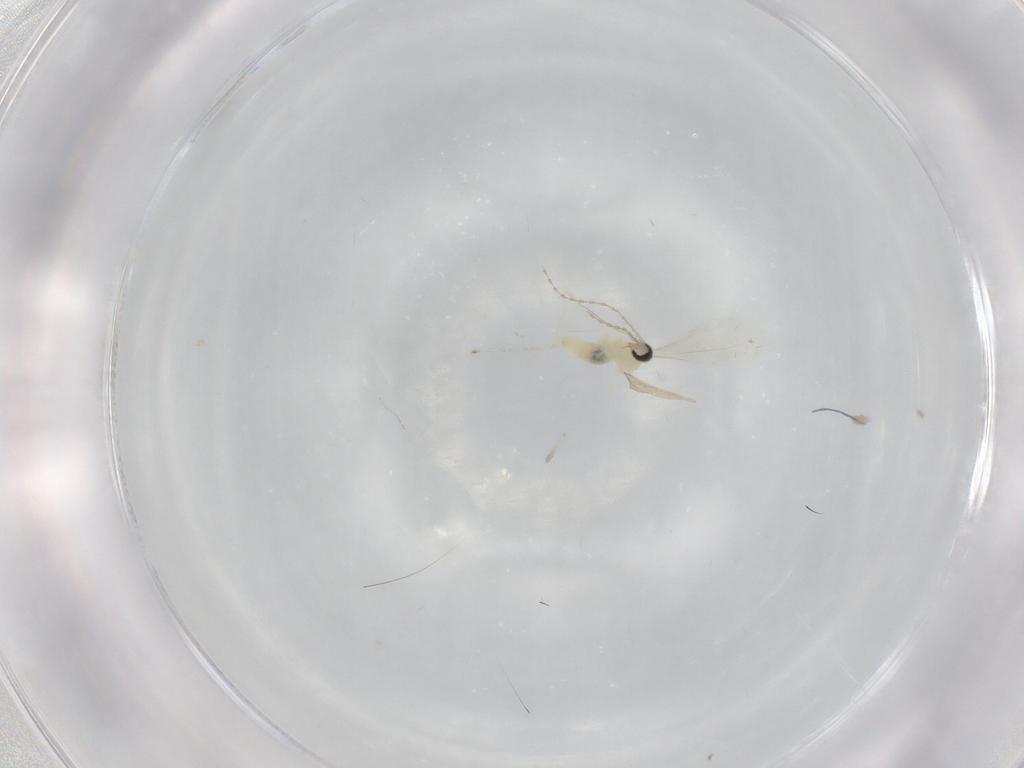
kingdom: Animalia
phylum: Arthropoda
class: Insecta
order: Diptera
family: Psychodidae
